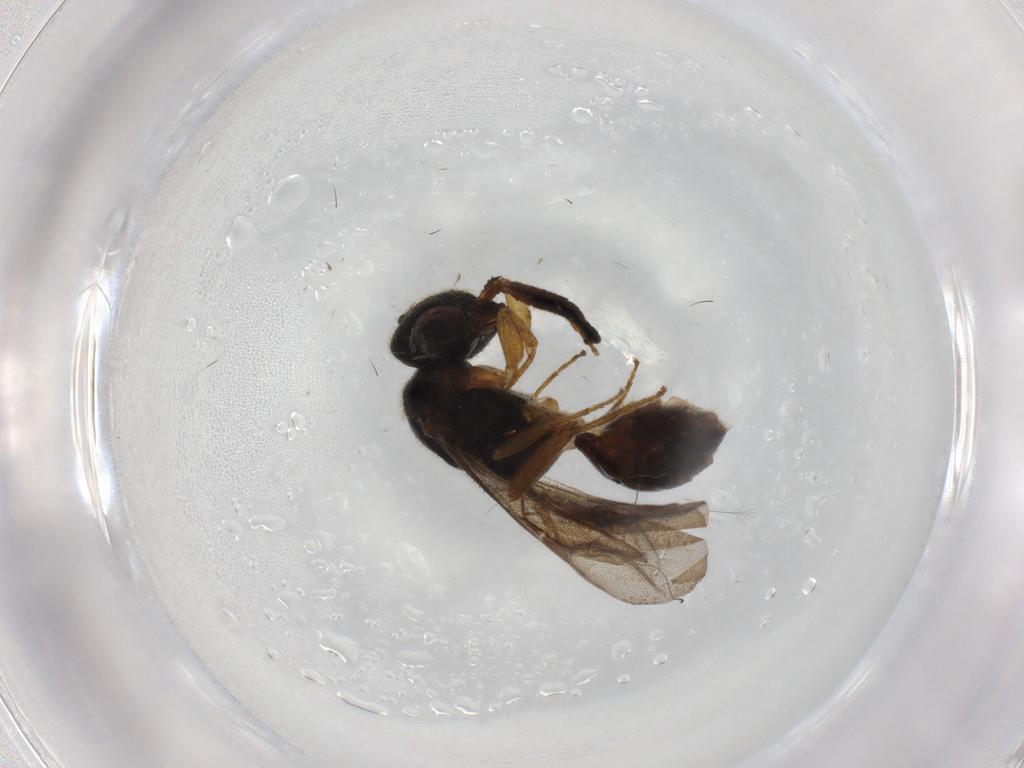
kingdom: Animalia
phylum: Arthropoda
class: Insecta
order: Hymenoptera
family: Bethylidae
